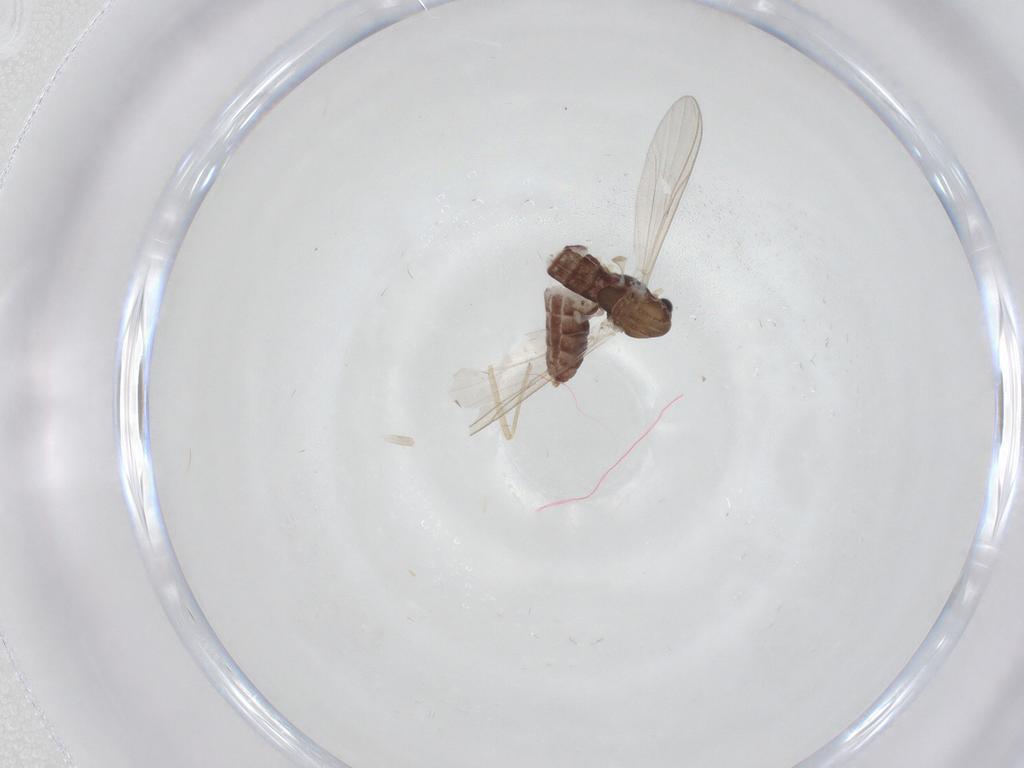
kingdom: Animalia
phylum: Arthropoda
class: Insecta
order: Diptera
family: Chironomidae
